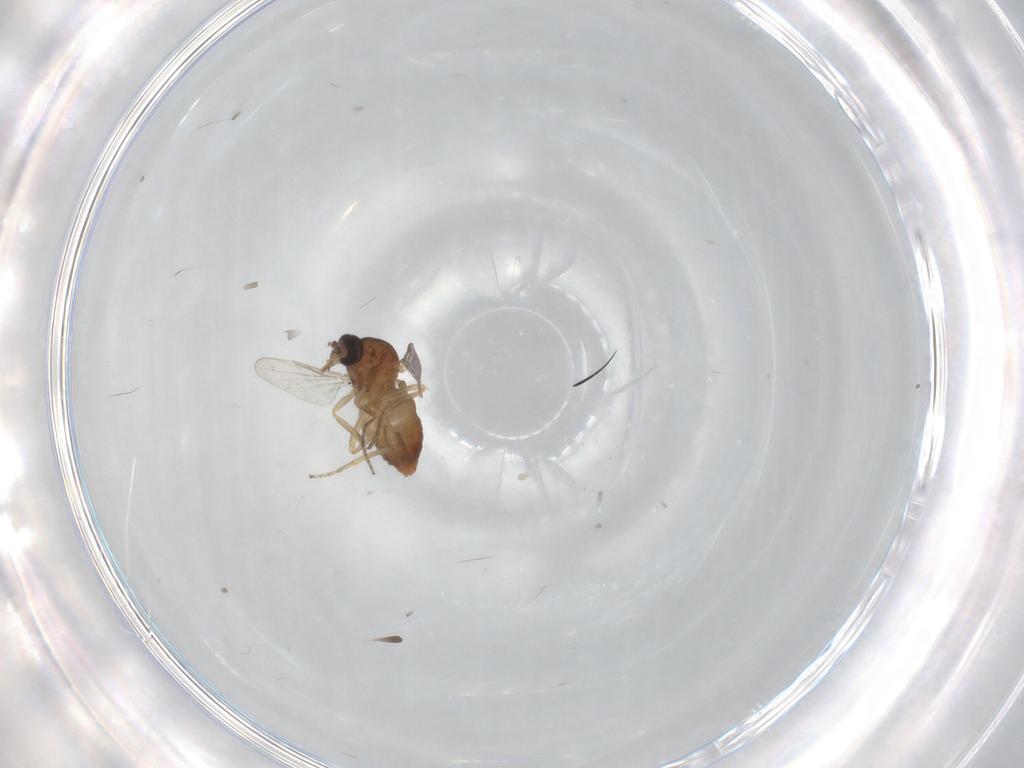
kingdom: Animalia
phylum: Arthropoda
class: Insecta
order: Diptera
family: Ceratopogonidae
